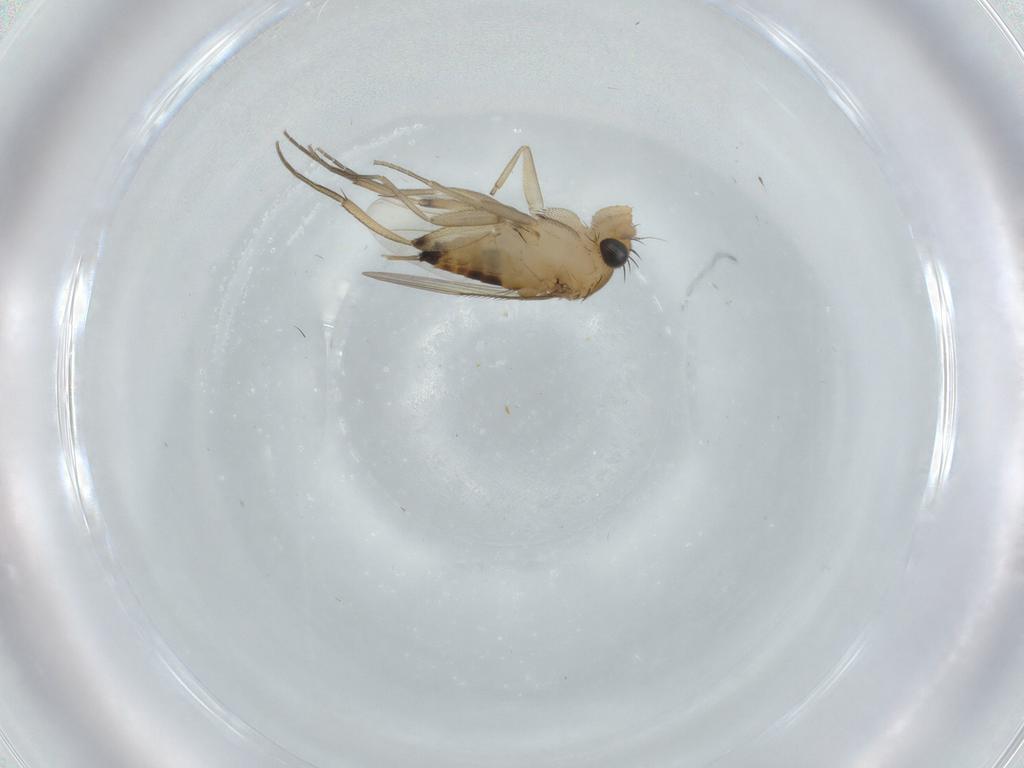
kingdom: Animalia
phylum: Arthropoda
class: Insecta
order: Diptera
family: Phoridae
